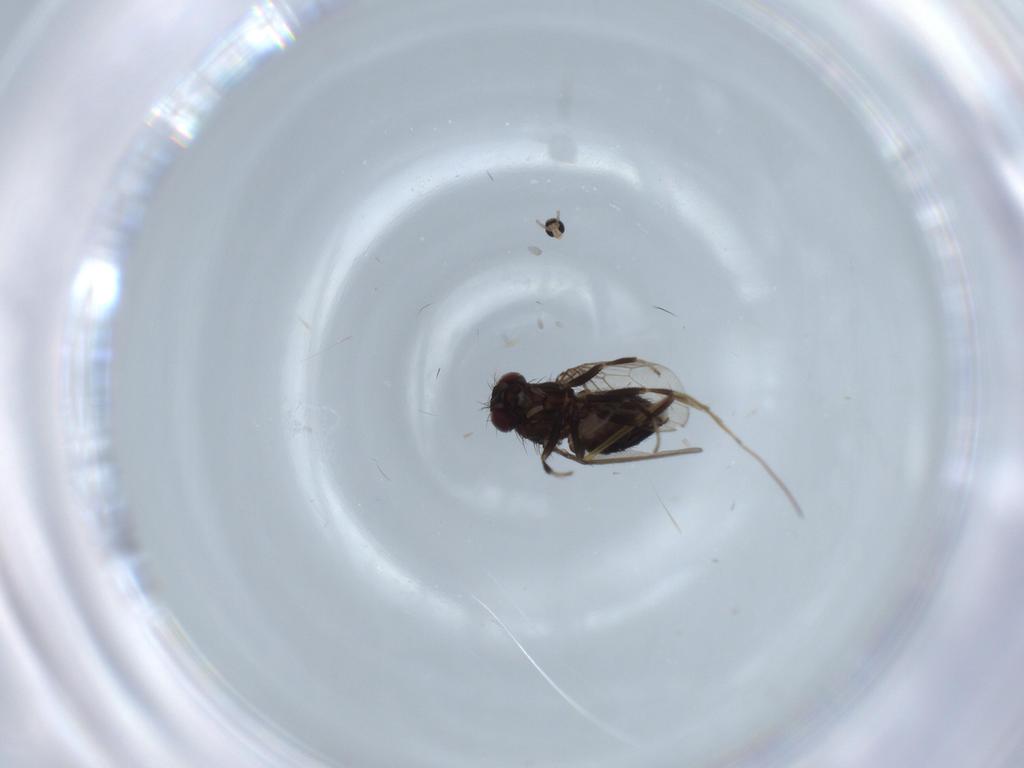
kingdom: Animalia
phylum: Arthropoda
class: Insecta
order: Diptera
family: Drosophilidae
